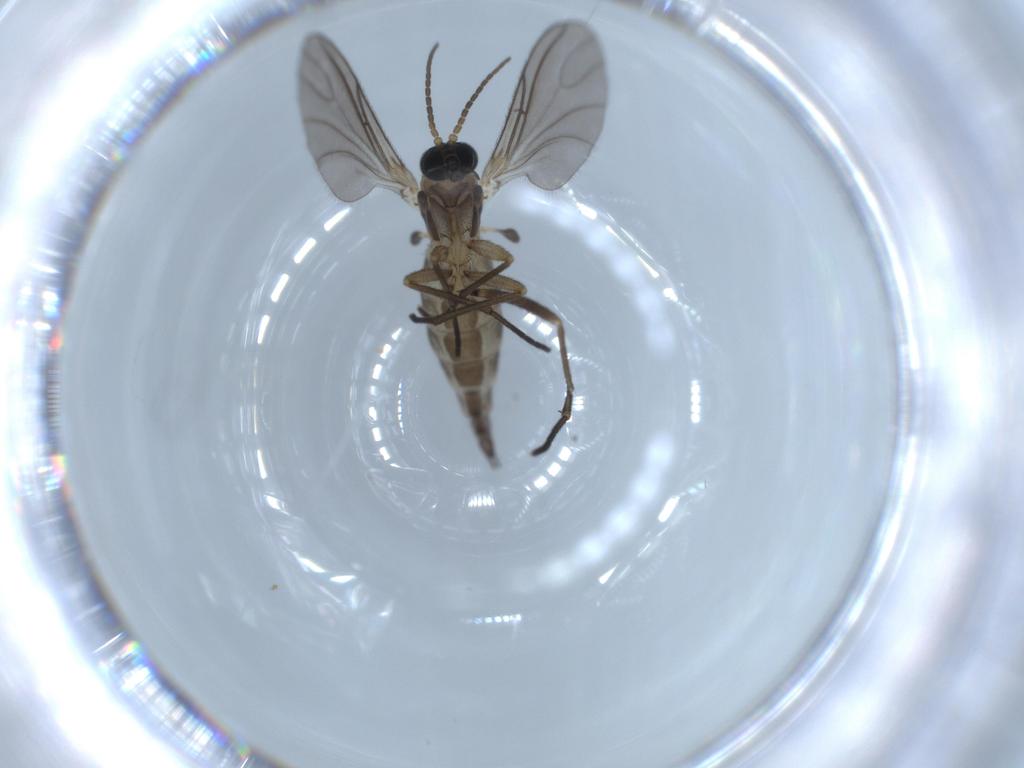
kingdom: Animalia
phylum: Arthropoda
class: Insecta
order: Diptera
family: Sciaridae
